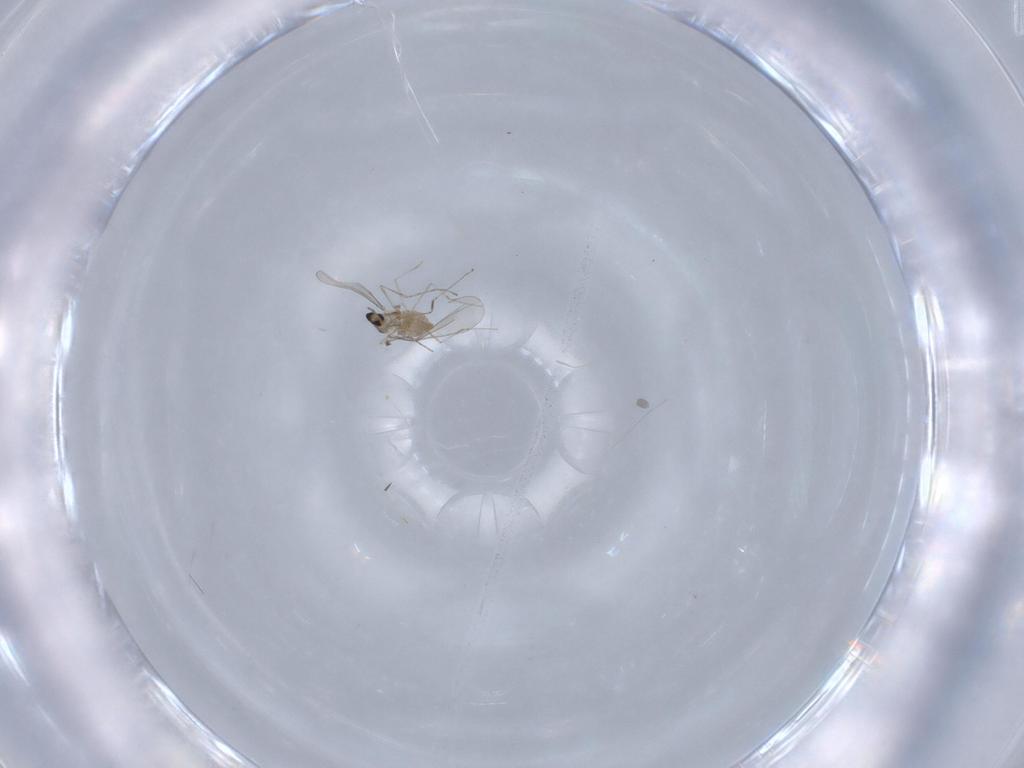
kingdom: Animalia
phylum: Arthropoda
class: Insecta
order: Diptera
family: Cecidomyiidae
